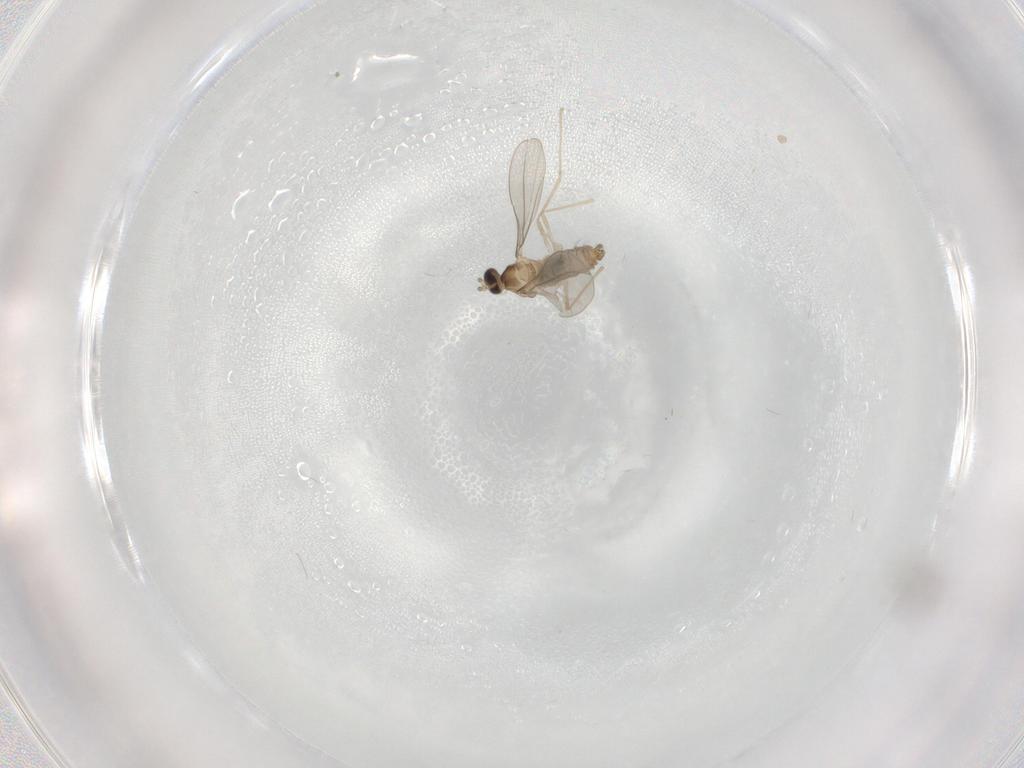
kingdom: Animalia
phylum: Arthropoda
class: Insecta
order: Diptera
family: Cecidomyiidae
